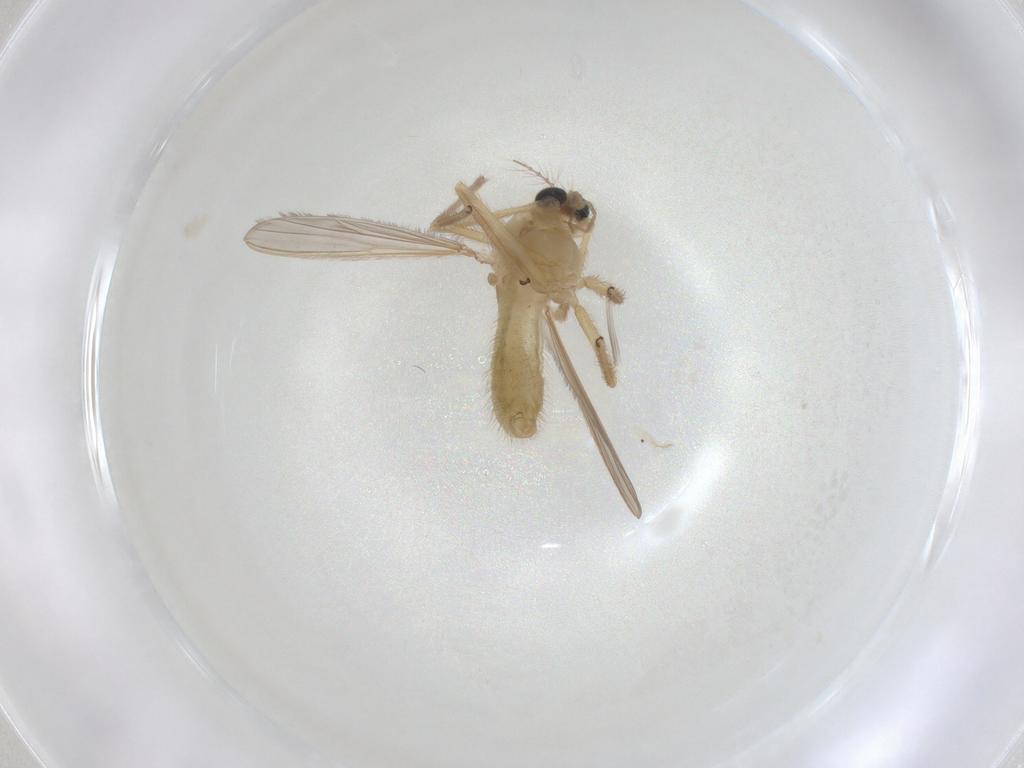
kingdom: Animalia
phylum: Arthropoda
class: Insecta
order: Diptera
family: Chironomidae
